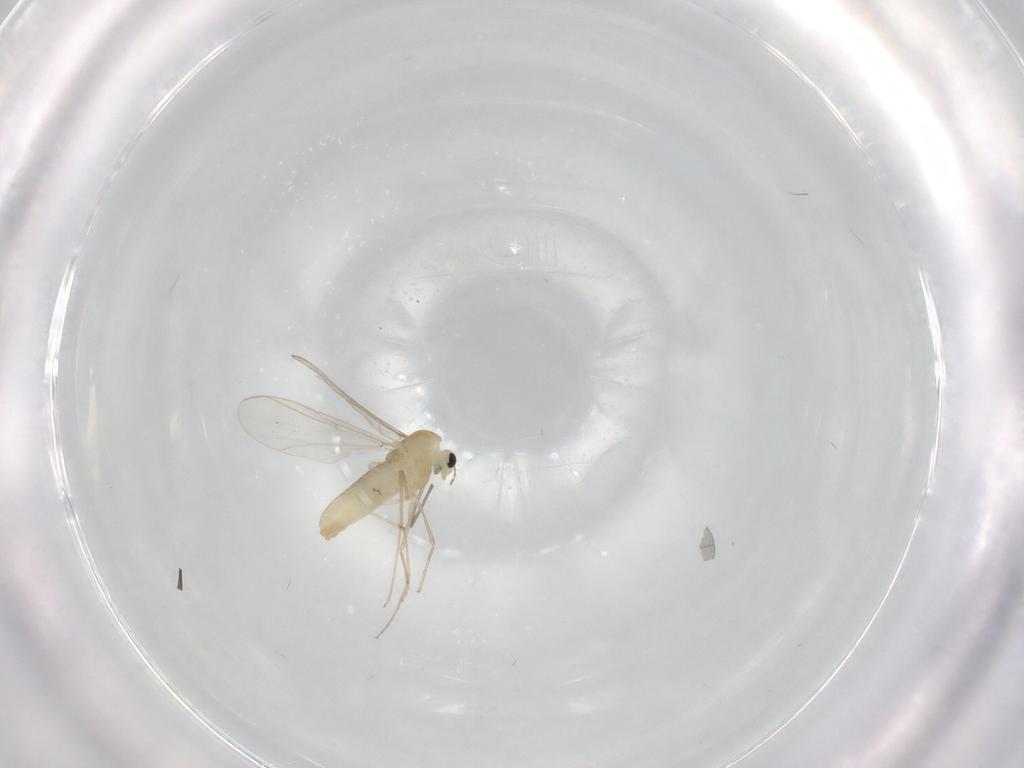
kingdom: Animalia
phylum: Arthropoda
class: Insecta
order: Diptera
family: Chironomidae
